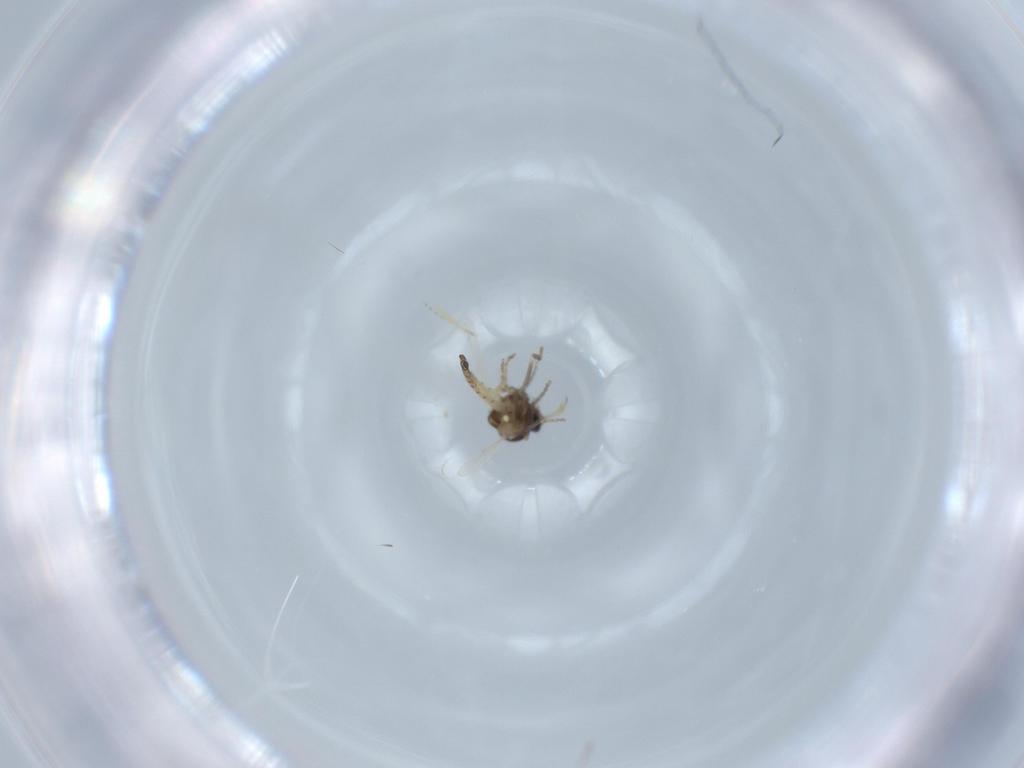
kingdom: Animalia
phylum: Arthropoda
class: Insecta
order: Diptera
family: Ceratopogonidae
